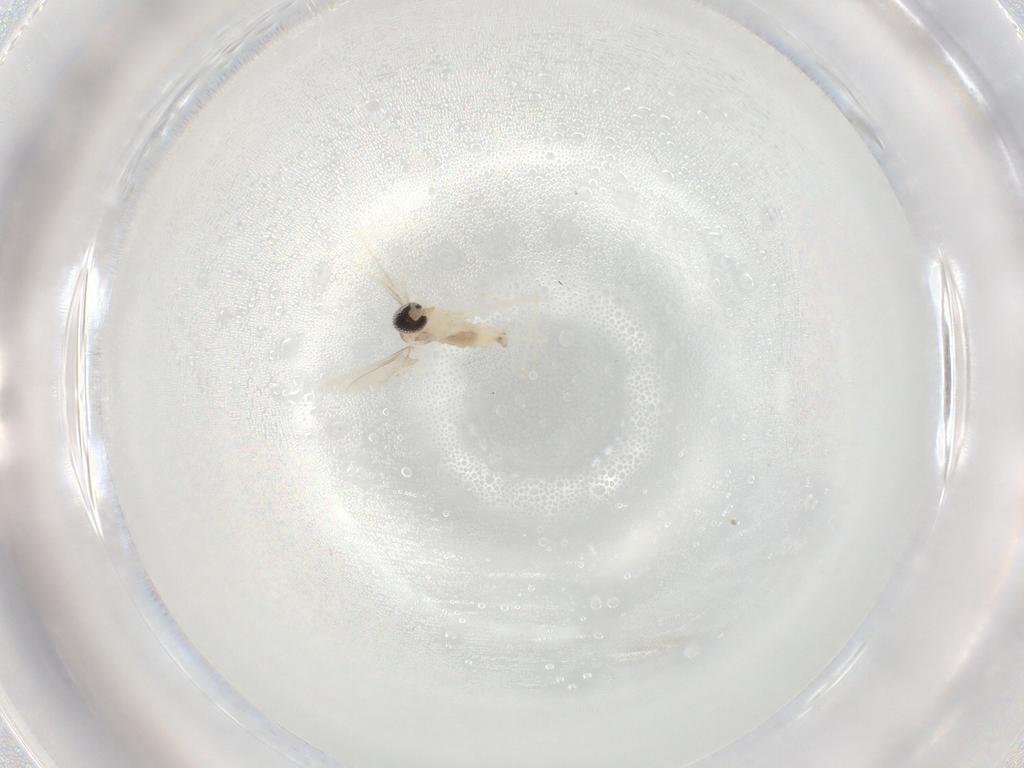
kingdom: Animalia
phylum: Arthropoda
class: Insecta
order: Diptera
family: Cecidomyiidae
